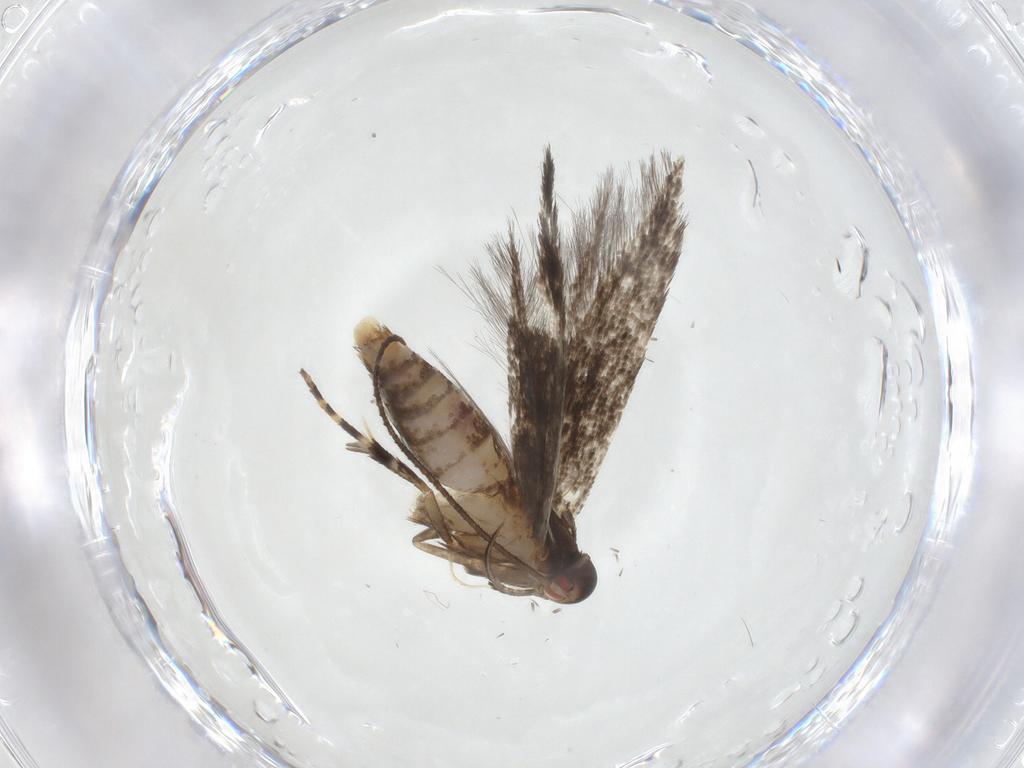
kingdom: Animalia
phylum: Arthropoda
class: Insecta
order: Lepidoptera
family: Cosmopterigidae
